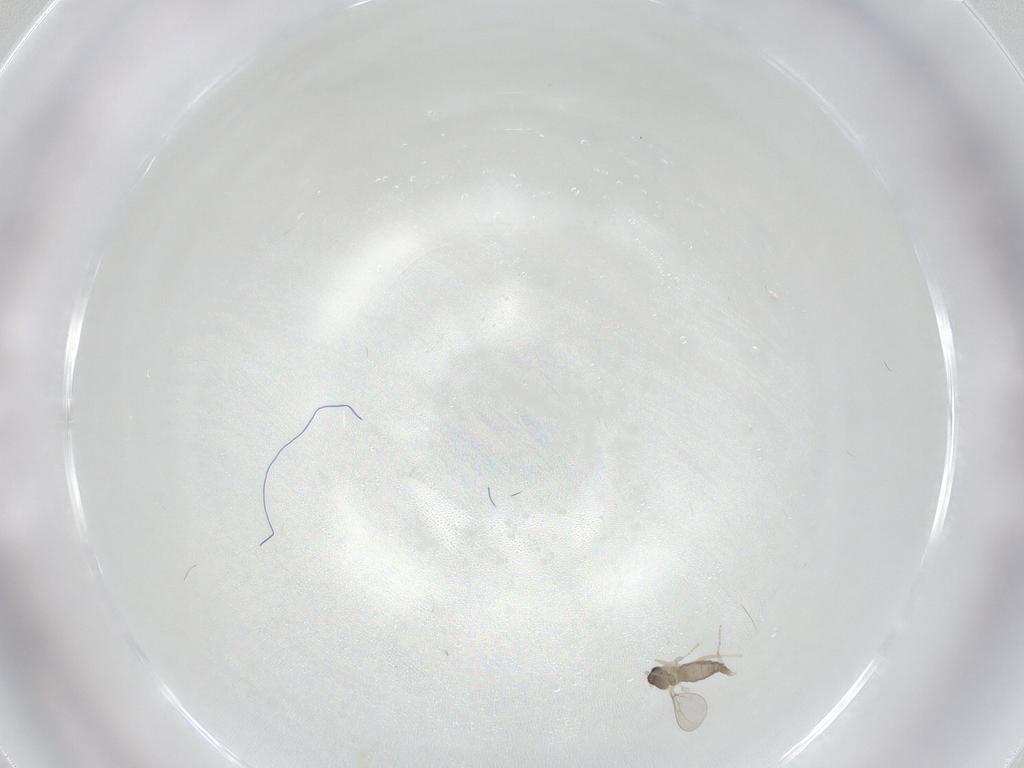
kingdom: Animalia
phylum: Arthropoda
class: Insecta
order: Diptera
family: Cecidomyiidae
